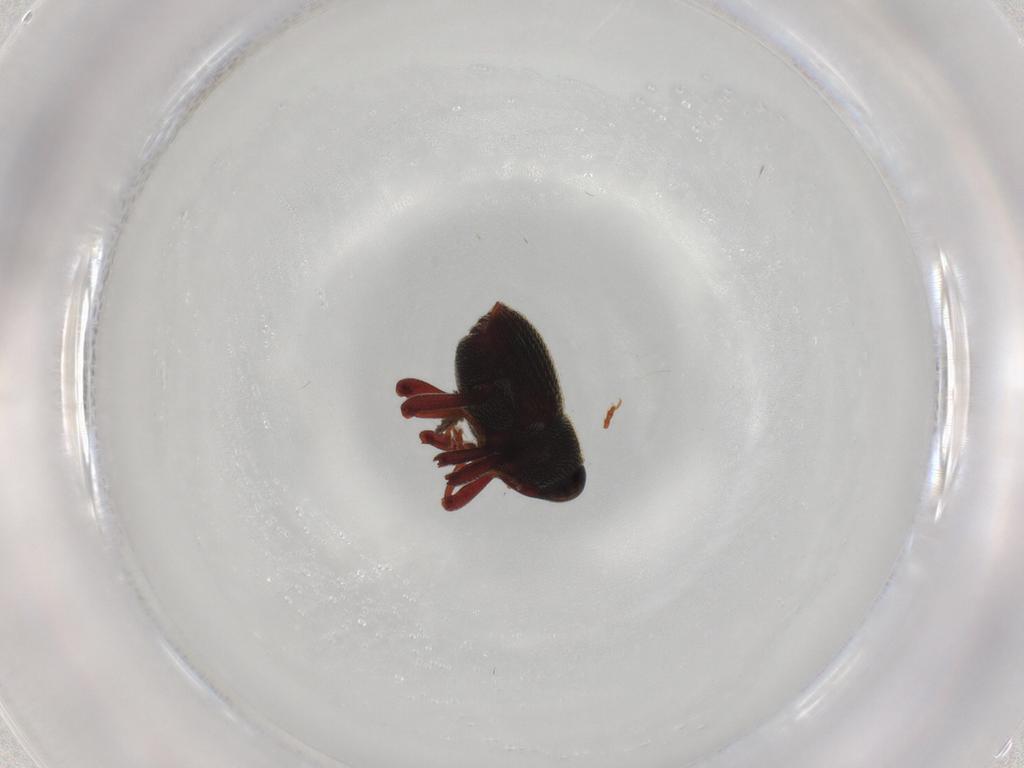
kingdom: Animalia
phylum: Arthropoda
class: Insecta
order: Coleoptera
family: Curculionidae
